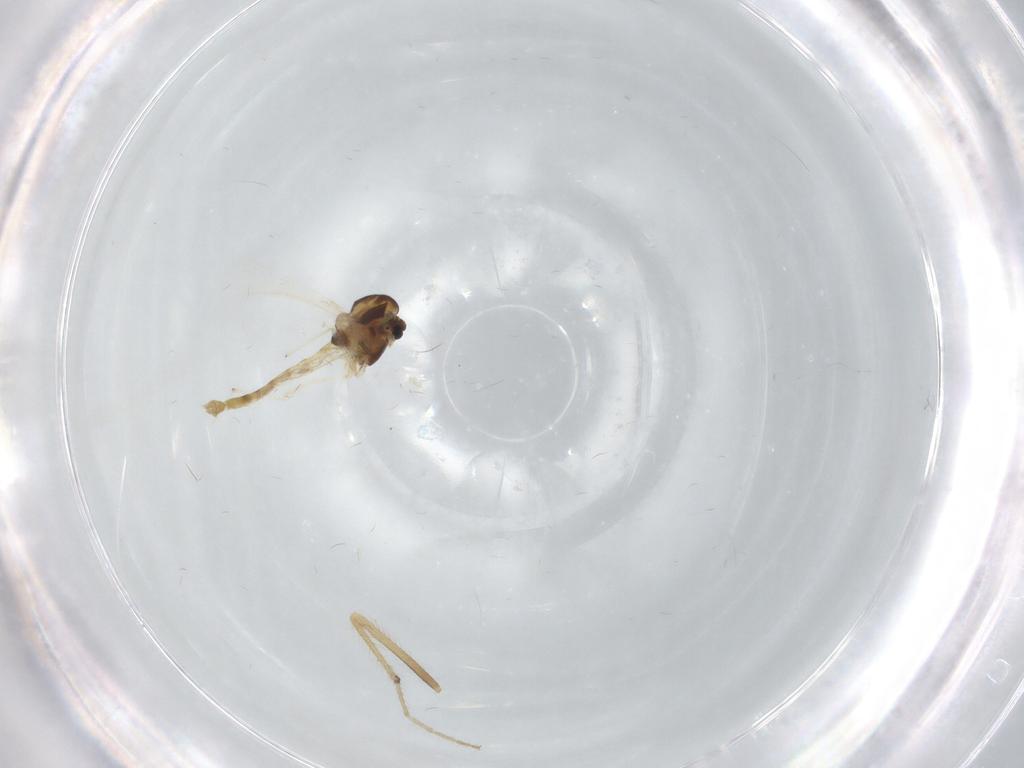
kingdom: Animalia
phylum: Arthropoda
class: Insecta
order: Diptera
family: Chironomidae
